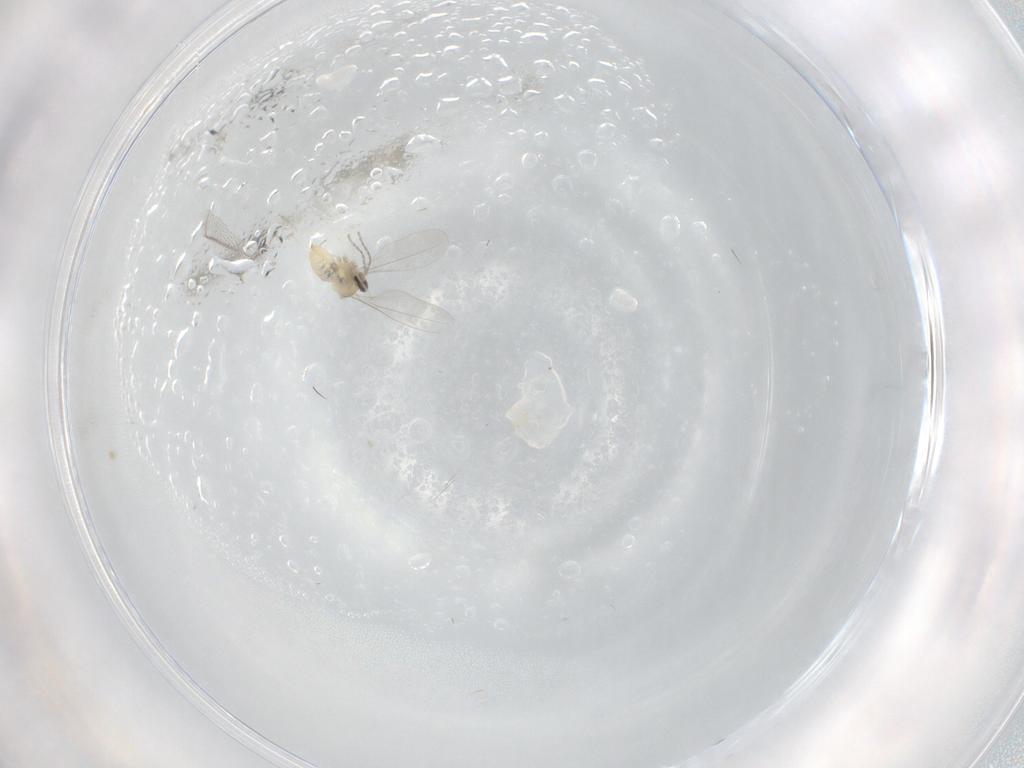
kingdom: Animalia
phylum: Arthropoda
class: Insecta
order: Diptera
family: Cecidomyiidae
